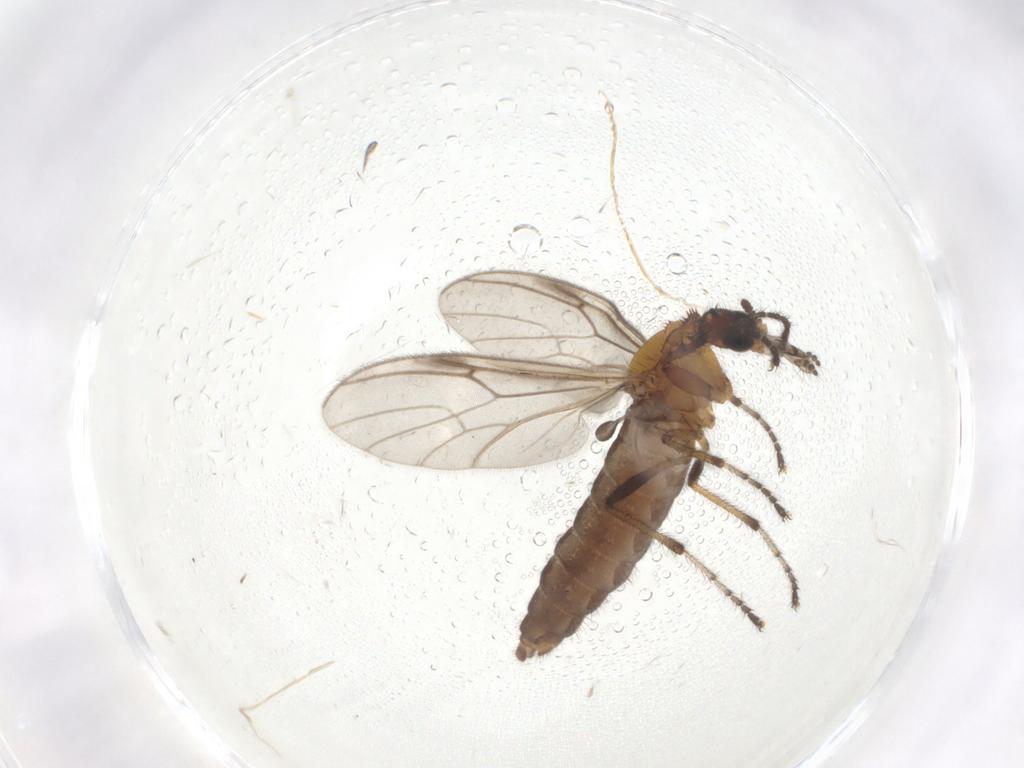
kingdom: Animalia
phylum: Arthropoda
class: Insecta
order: Diptera
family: Bibionidae
